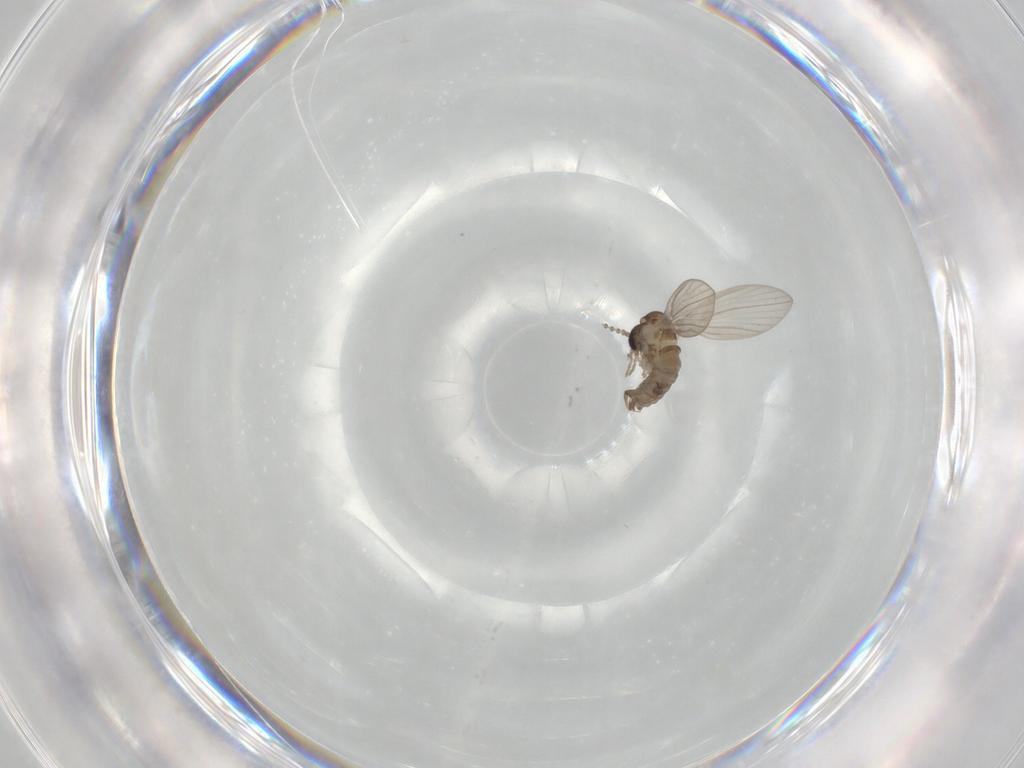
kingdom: Animalia
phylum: Arthropoda
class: Insecta
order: Diptera
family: Psychodidae
